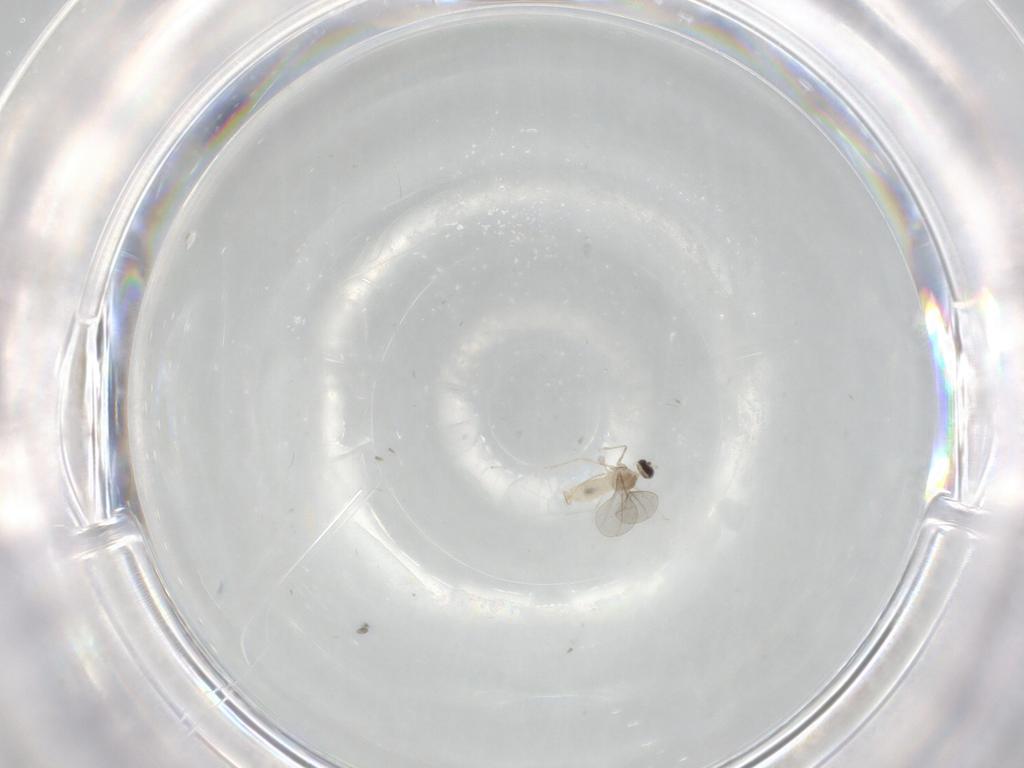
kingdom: Animalia
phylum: Arthropoda
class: Insecta
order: Diptera
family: Cecidomyiidae
